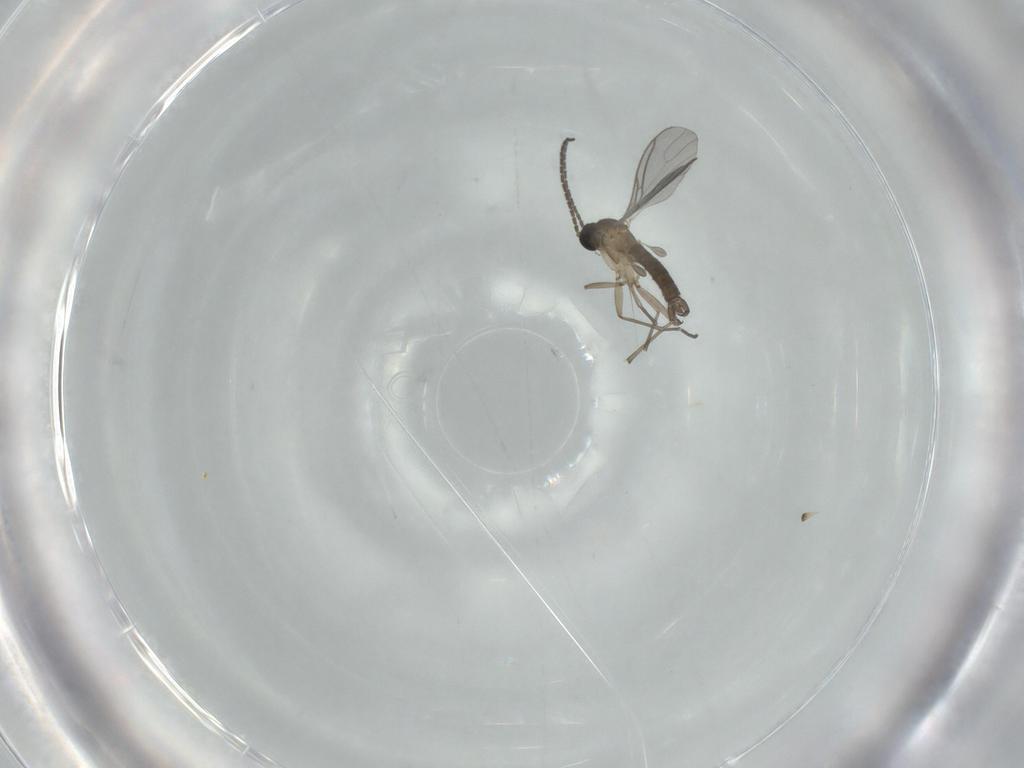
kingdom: Animalia
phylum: Arthropoda
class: Insecta
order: Diptera
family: Sciaridae
